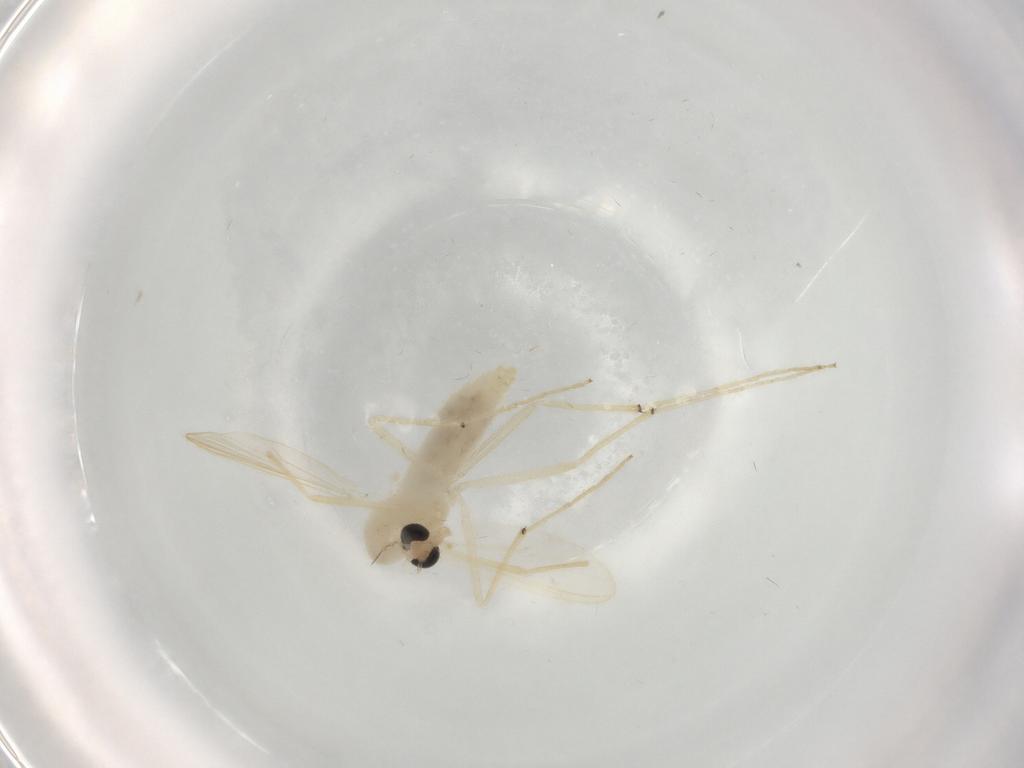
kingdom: Animalia
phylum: Arthropoda
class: Insecta
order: Diptera
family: Chironomidae
